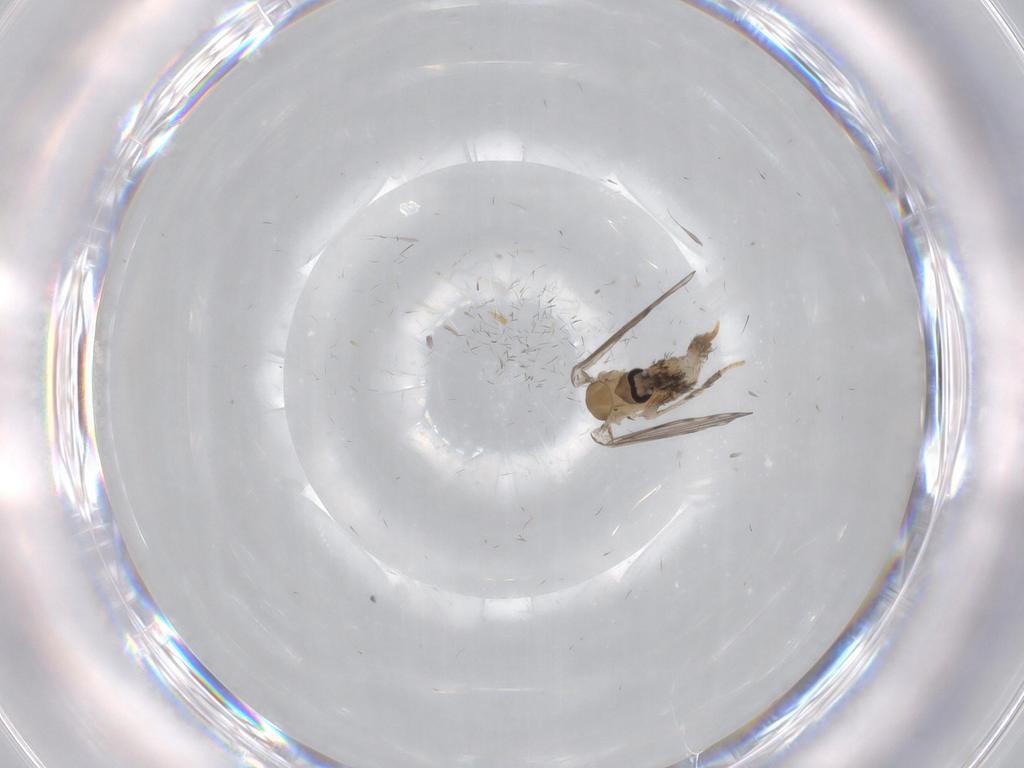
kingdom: Animalia
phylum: Arthropoda
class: Insecta
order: Diptera
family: Psychodidae
